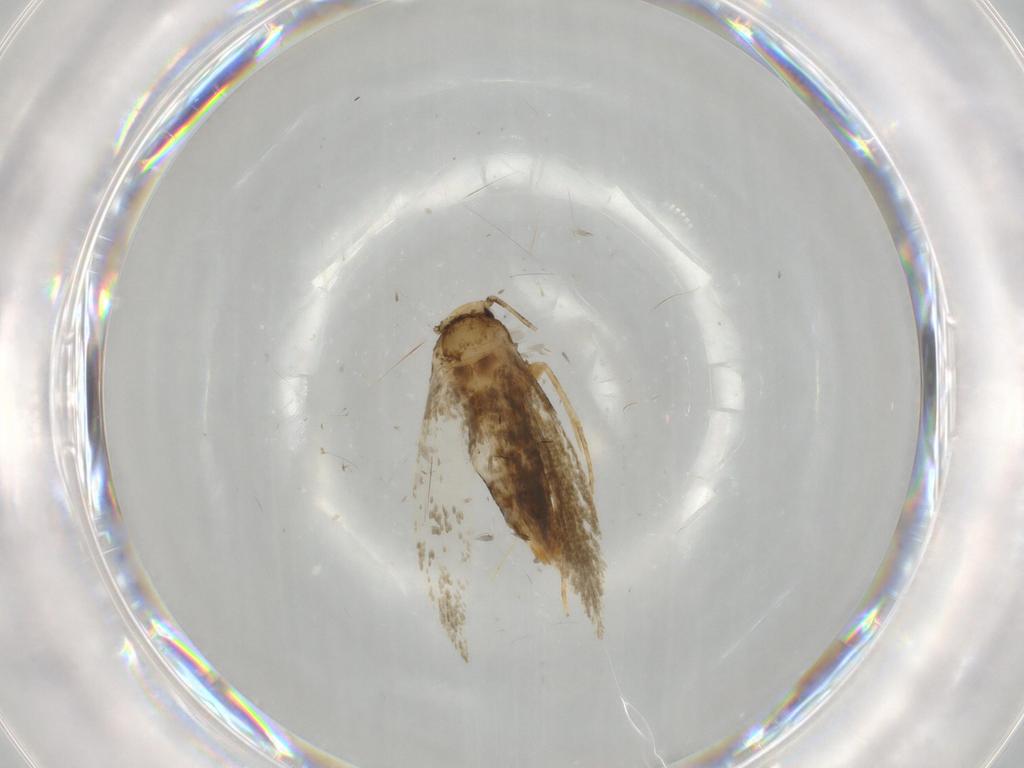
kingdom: Animalia
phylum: Arthropoda
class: Insecta
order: Lepidoptera
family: Tineidae
